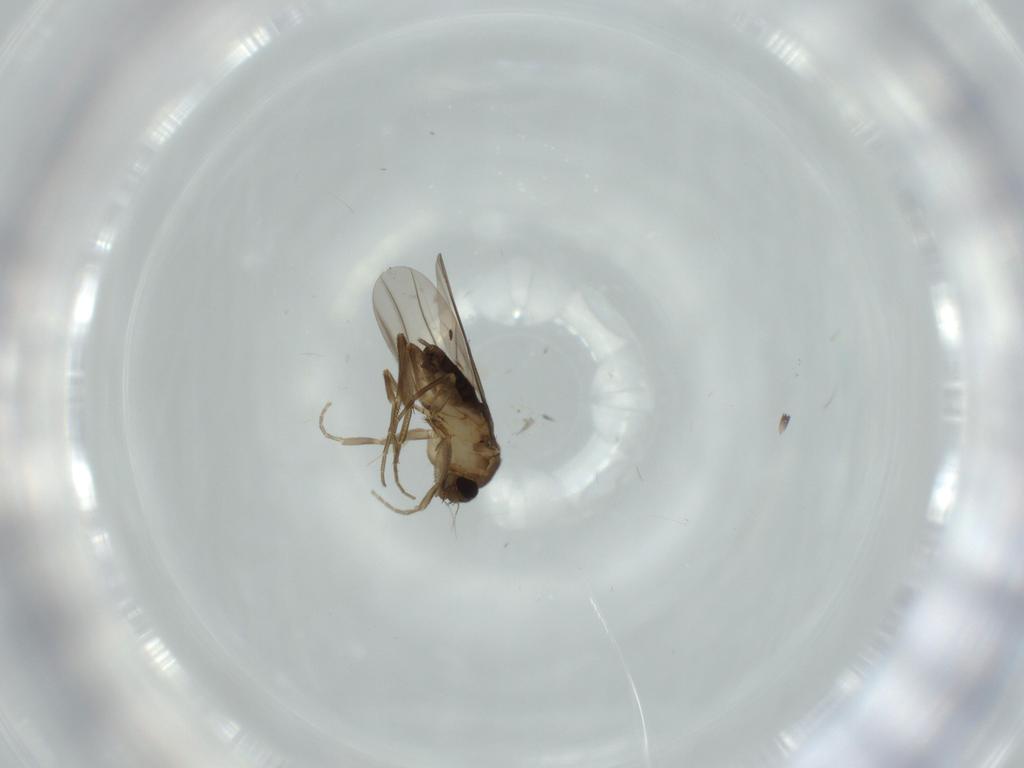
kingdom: Animalia
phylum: Arthropoda
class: Insecta
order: Diptera
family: Phoridae
